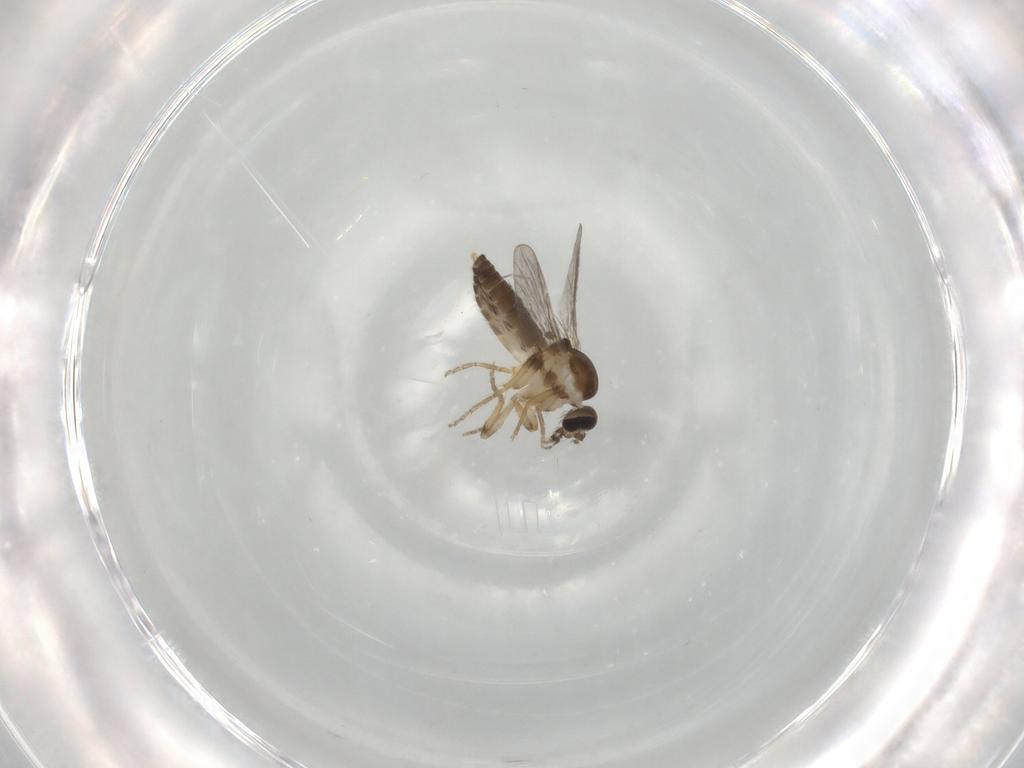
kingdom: Animalia
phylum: Arthropoda
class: Insecta
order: Diptera
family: Ceratopogonidae
